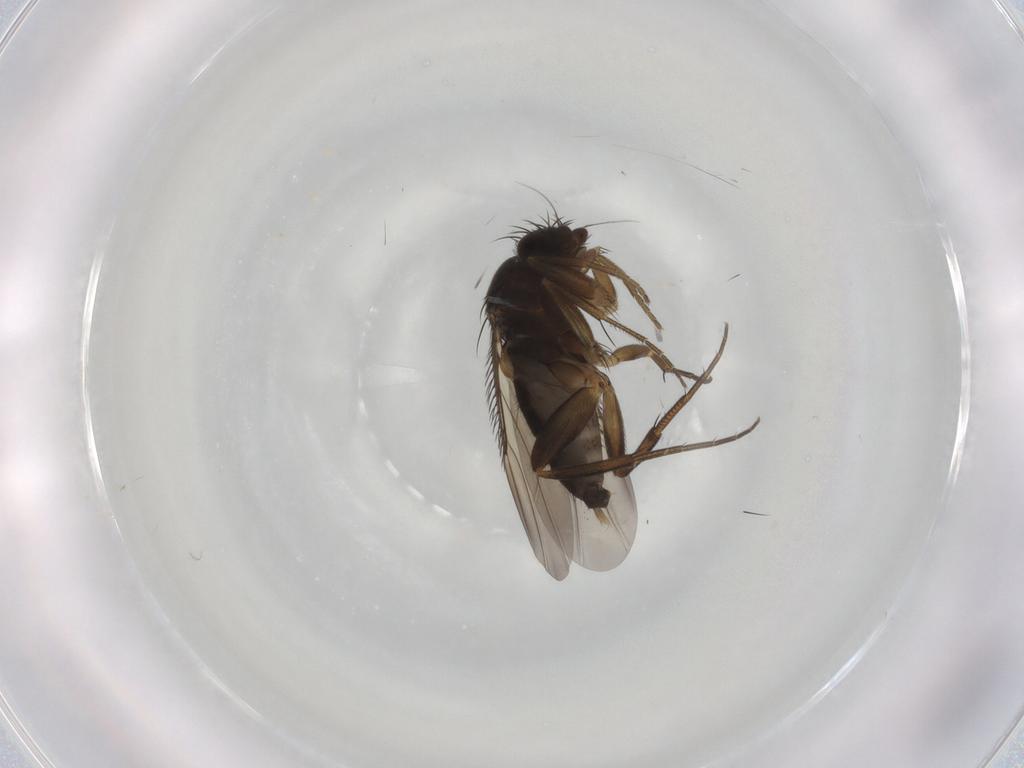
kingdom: Animalia
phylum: Arthropoda
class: Insecta
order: Diptera
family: Phoridae
